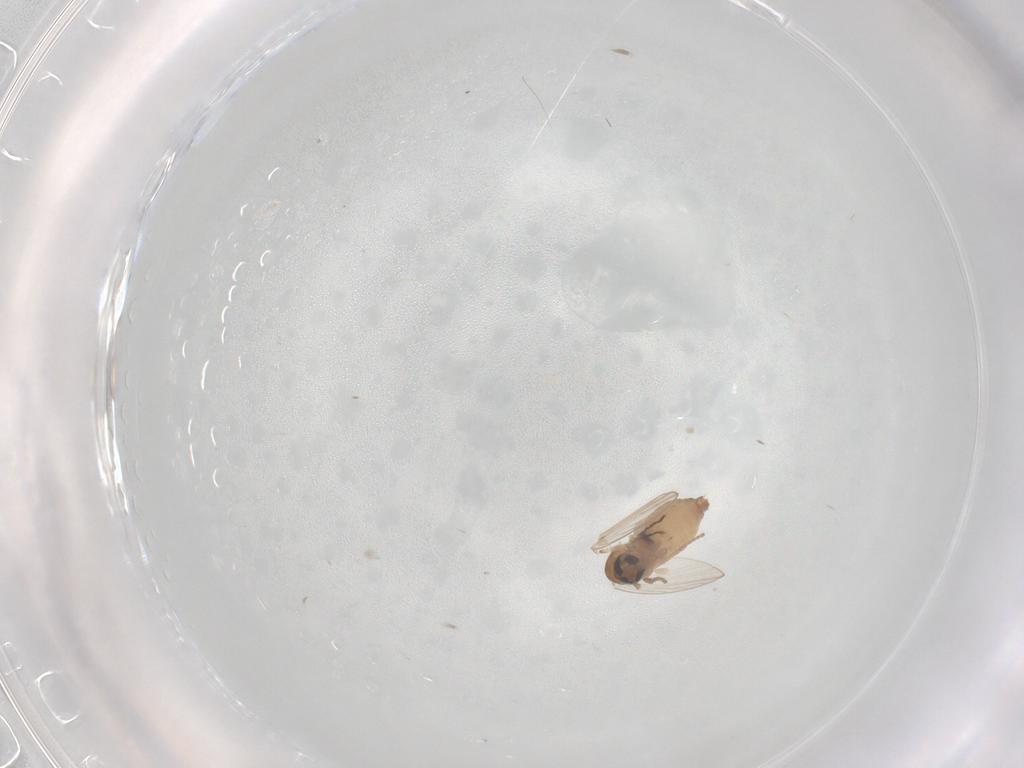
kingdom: Animalia
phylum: Arthropoda
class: Insecta
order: Diptera
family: Psychodidae
